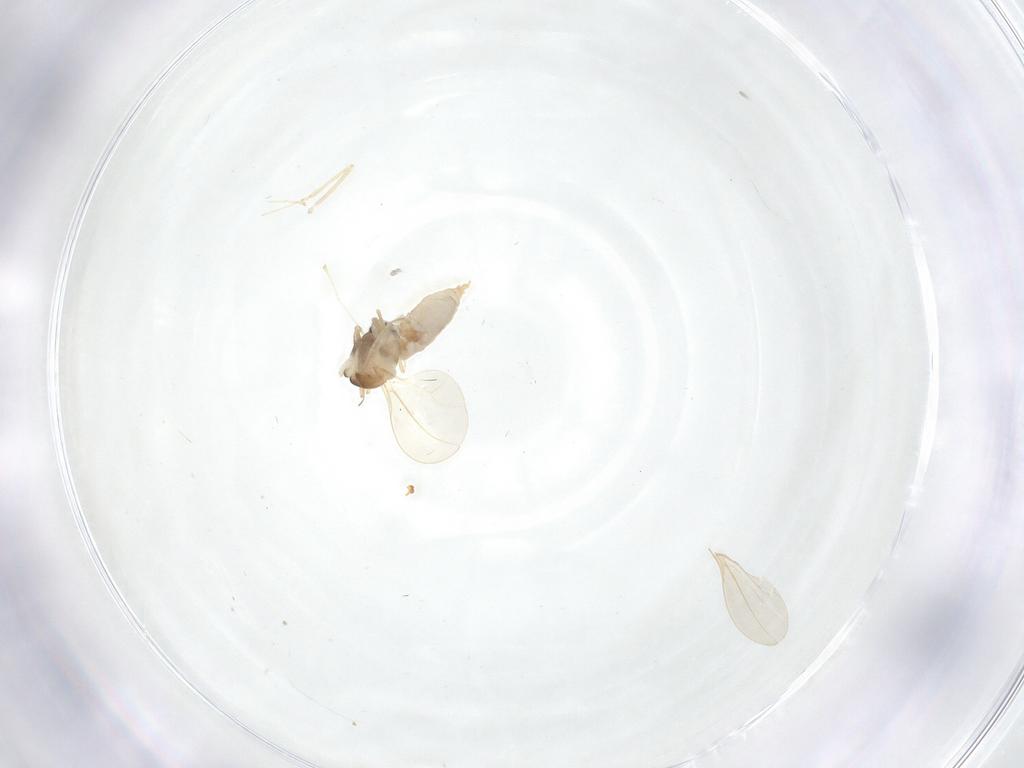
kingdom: Animalia
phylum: Arthropoda
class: Insecta
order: Diptera
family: Cecidomyiidae
